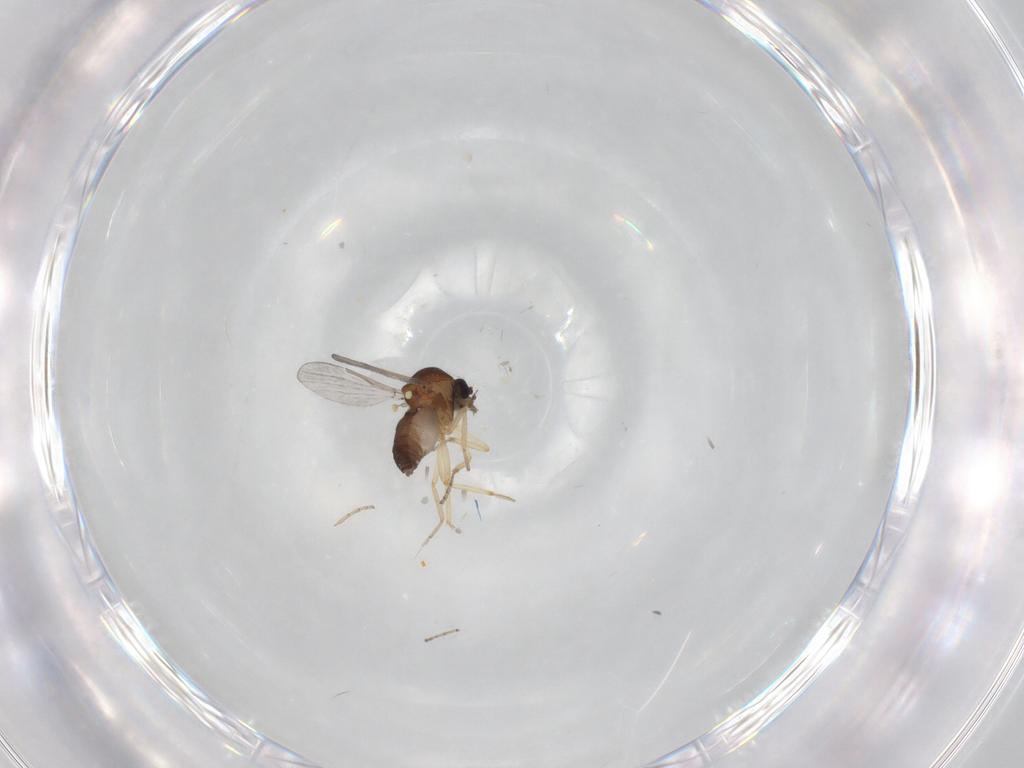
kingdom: Animalia
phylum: Arthropoda
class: Insecta
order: Diptera
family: Ceratopogonidae
